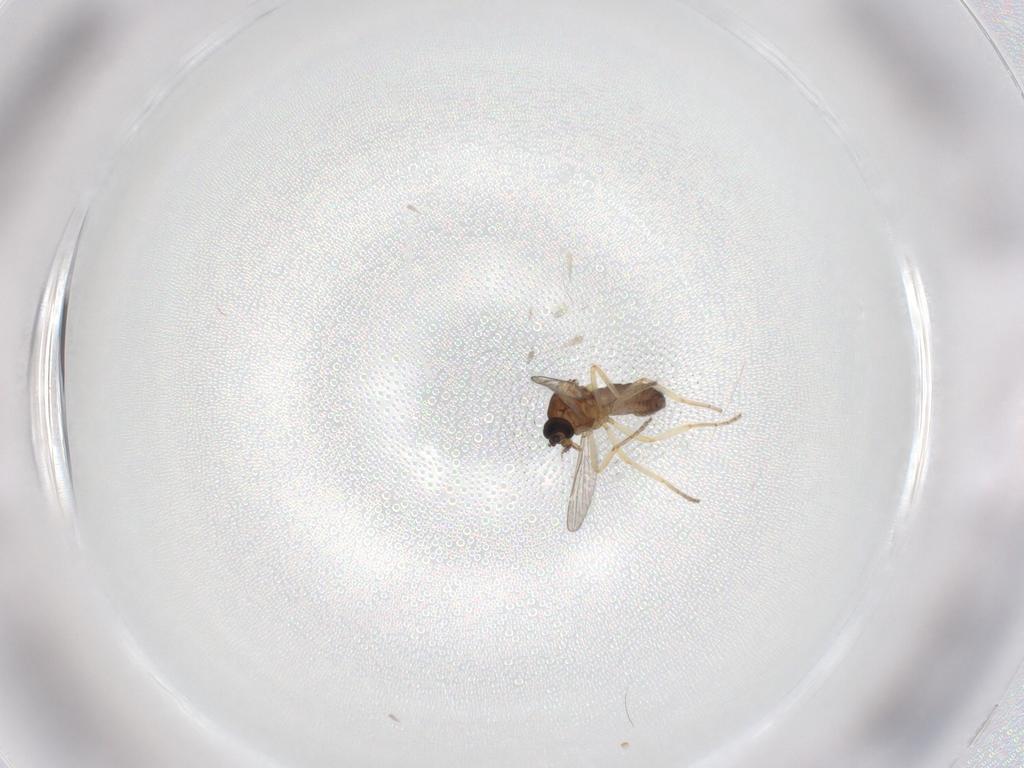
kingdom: Animalia
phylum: Arthropoda
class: Insecta
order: Diptera
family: Ceratopogonidae
